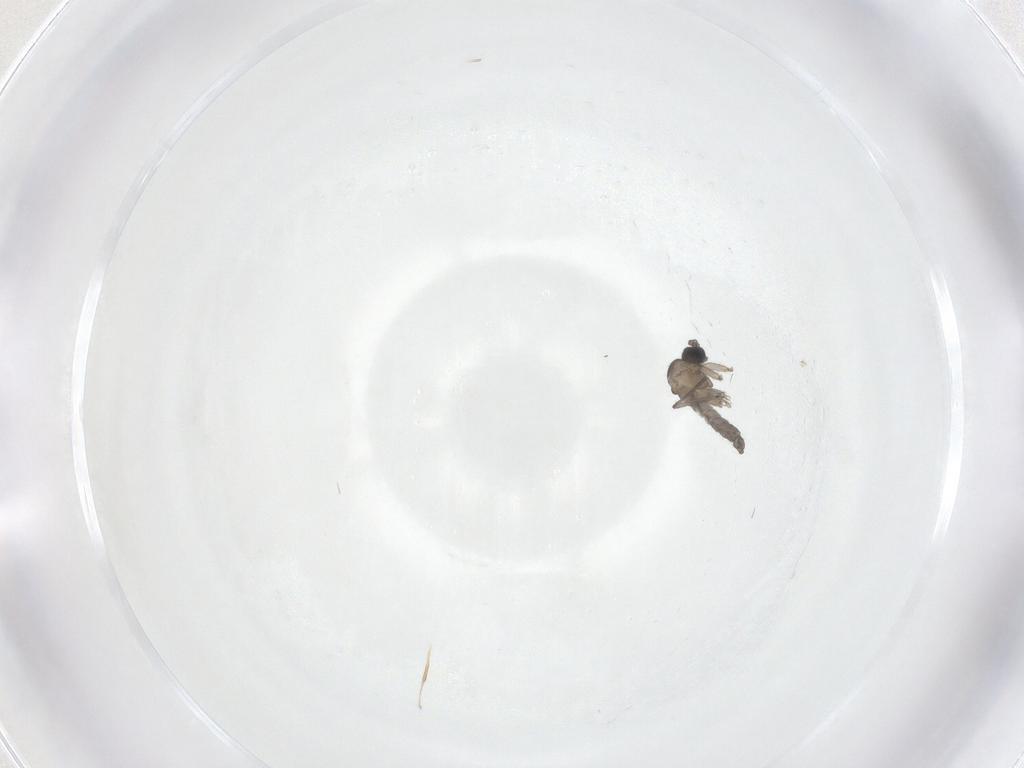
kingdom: Animalia
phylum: Arthropoda
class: Insecta
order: Diptera
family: Sciaridae
